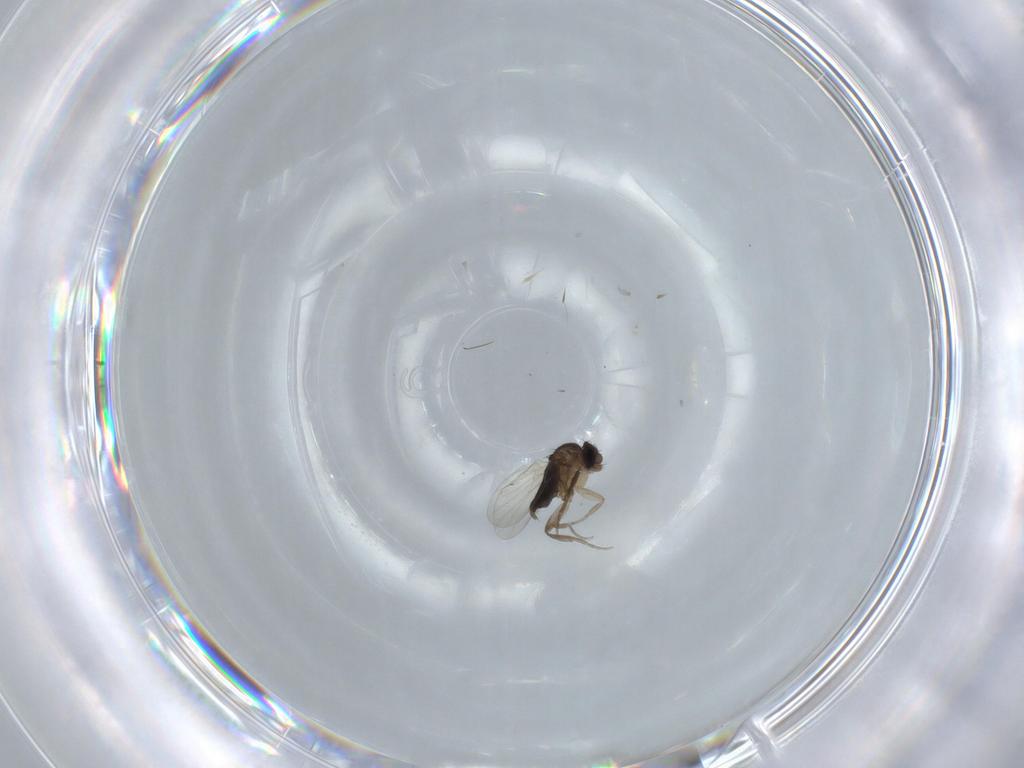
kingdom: Animalia
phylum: Arthropoda
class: Insecta
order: Diptera
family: Phoridae
